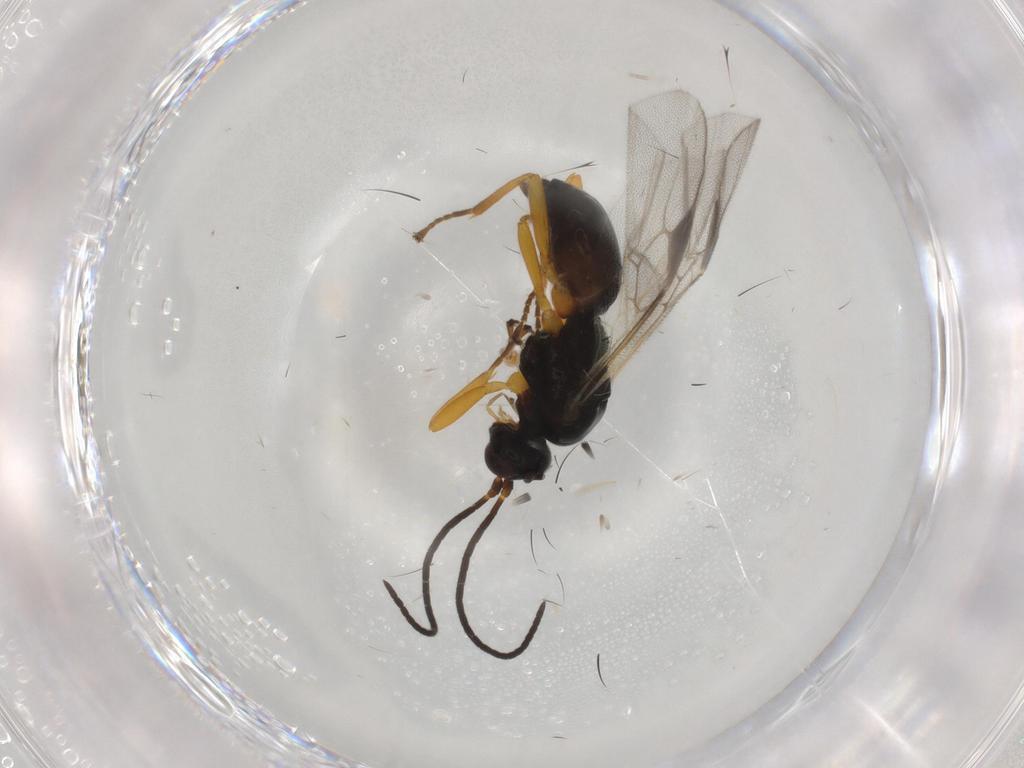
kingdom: Animalia
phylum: Arthropoda
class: Insecta
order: Hymenoptera
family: Braconidae
